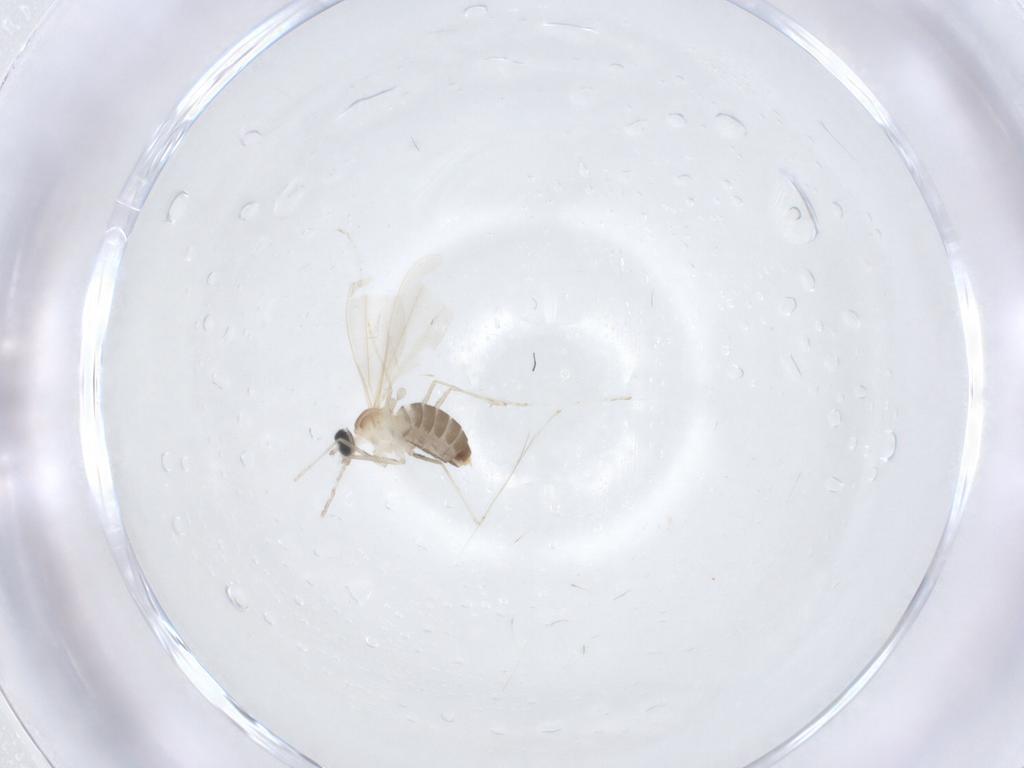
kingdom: Animalia
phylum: Arthropoda
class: Insecta
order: Diptera
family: Cecidomyiidae
